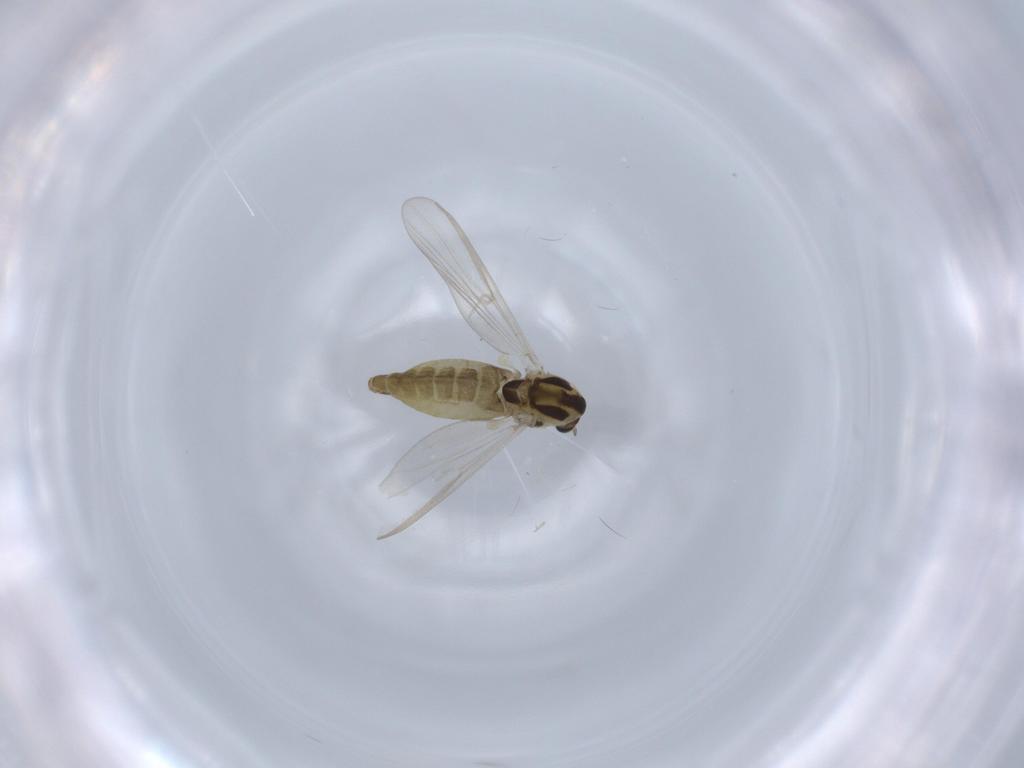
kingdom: Animalia
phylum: Arthropoda
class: Insecta
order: Diptera
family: Chironomidae
